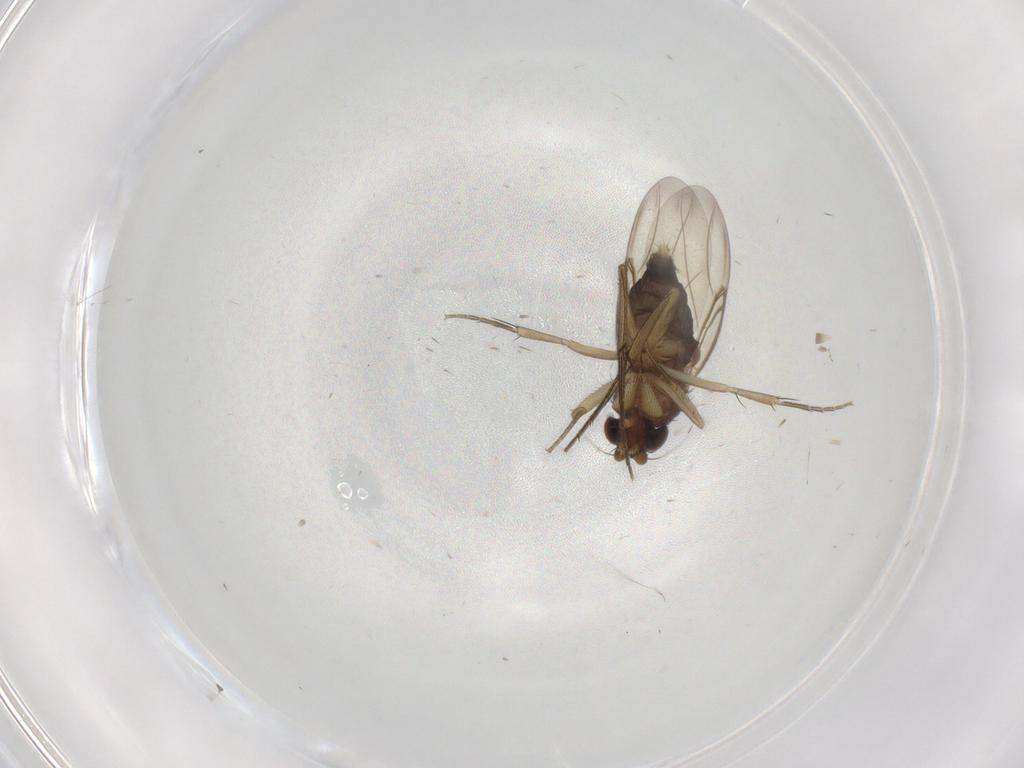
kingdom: Animalia
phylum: Arthropoda
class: Insecta
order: Diptera
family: Phoridae
